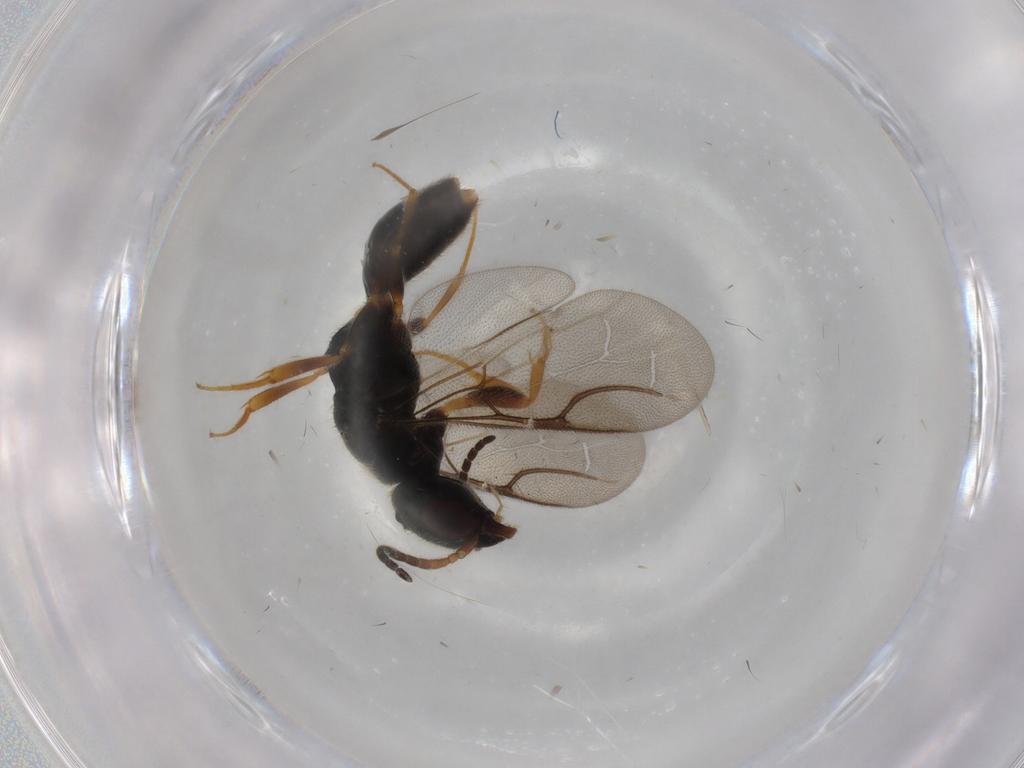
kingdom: Animalia
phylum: Arthropoda
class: Insecta
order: Hymenoptera
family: Bethylidae
